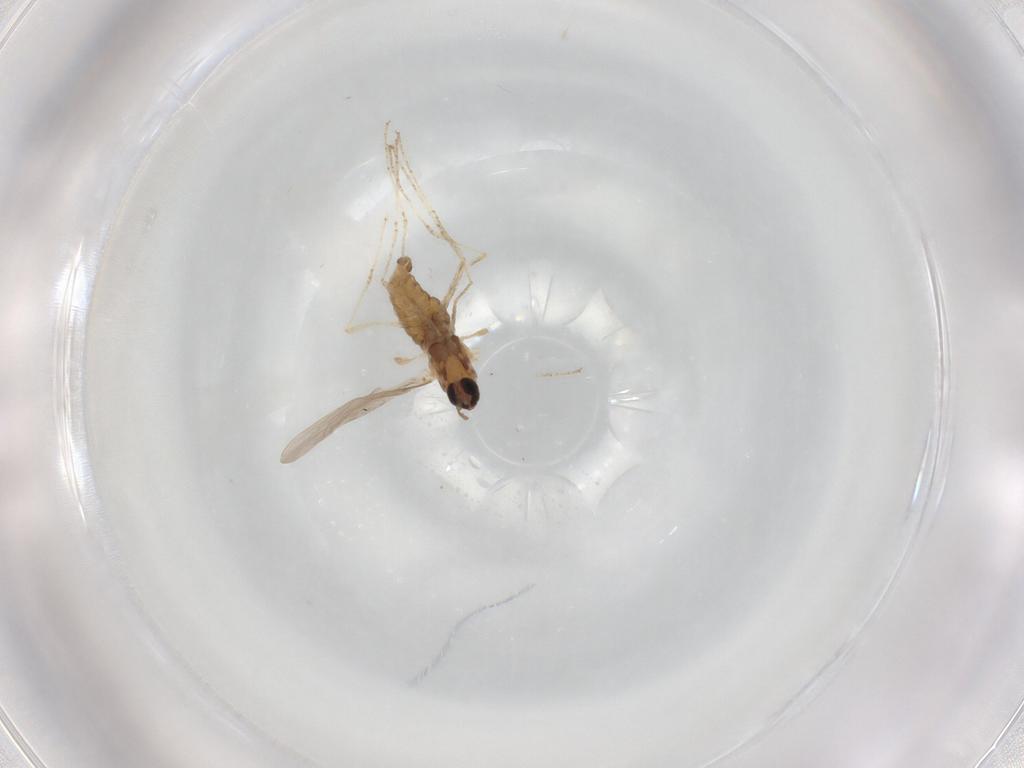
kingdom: Animalia
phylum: Arthropoda
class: Insecta
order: Diptera
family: Cecidomyiidae
